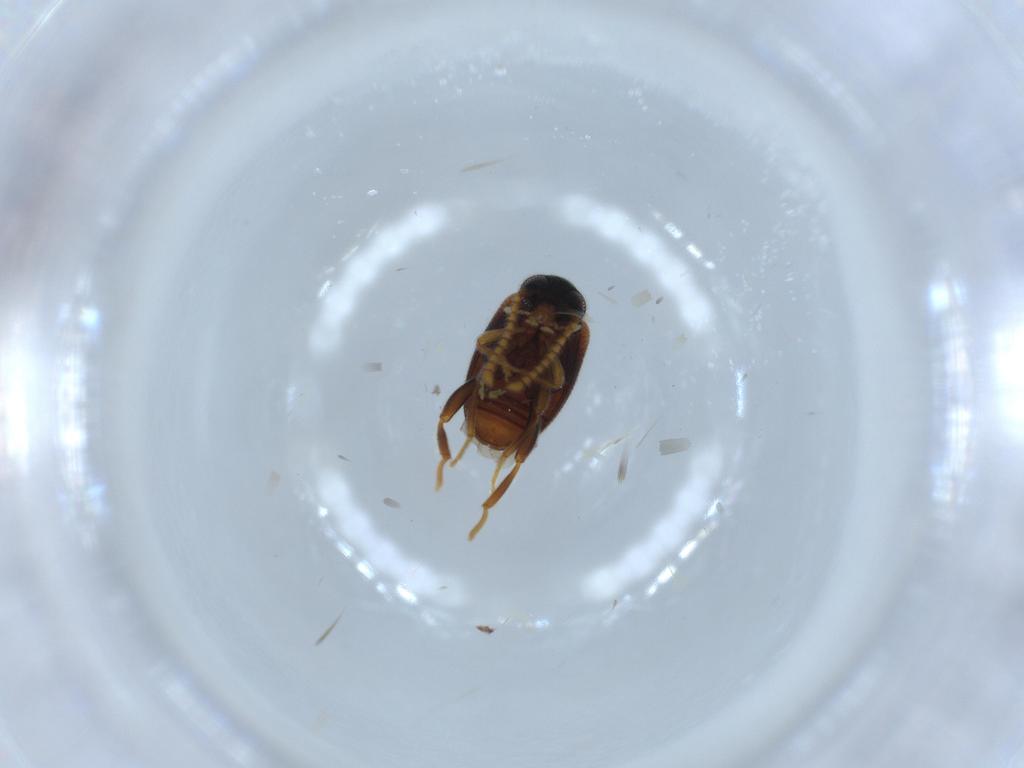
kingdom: Animalia
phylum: Arthropoda
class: Insecta
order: Coleoptera
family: Aderidae
